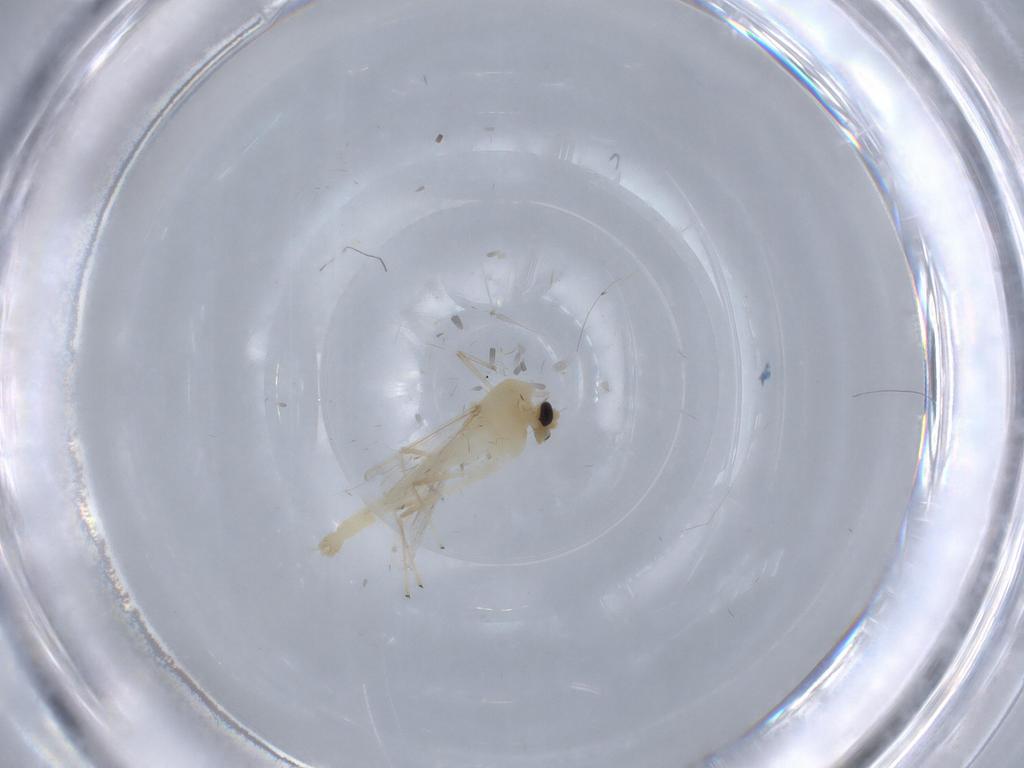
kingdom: Animalia
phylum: Arthropoda
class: Insecta
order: Diptera
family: Chironomidae
